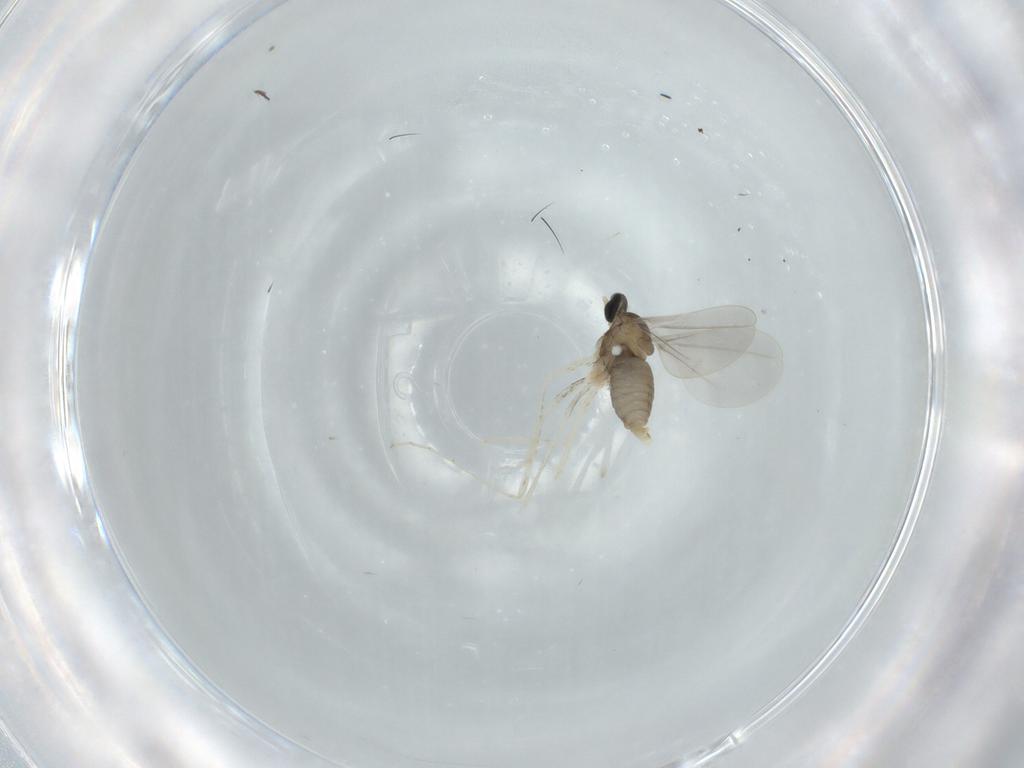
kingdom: Animalia
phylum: Arthropoda
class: Insecta
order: Diptera
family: Cecidomyiidae
